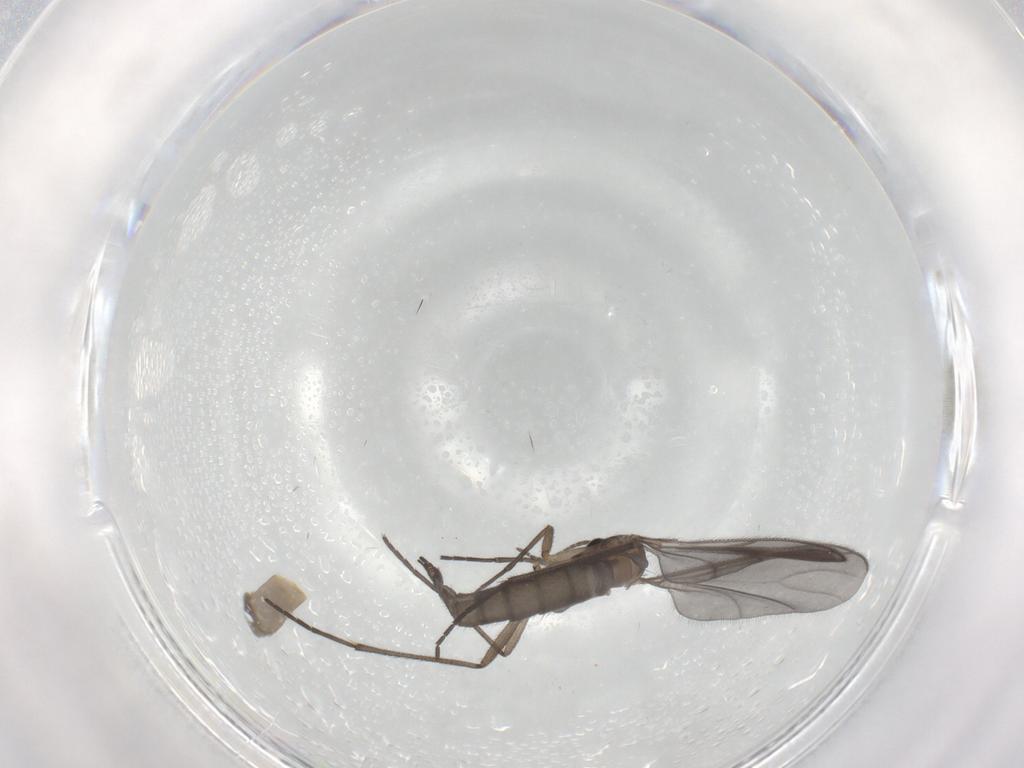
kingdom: Animalia
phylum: Arthropoda
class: Insecta
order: Diptera
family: Sciaridae
